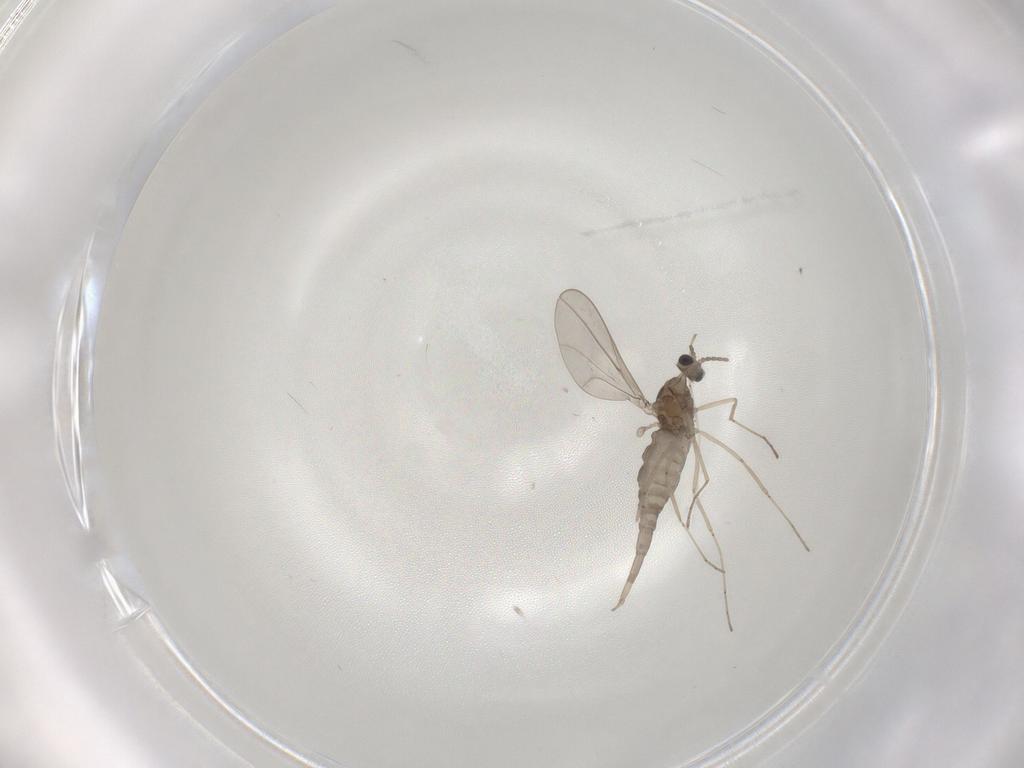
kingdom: Animalia
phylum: Arthropoda
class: Insecta
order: Diptera
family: Cecidomyiidae
